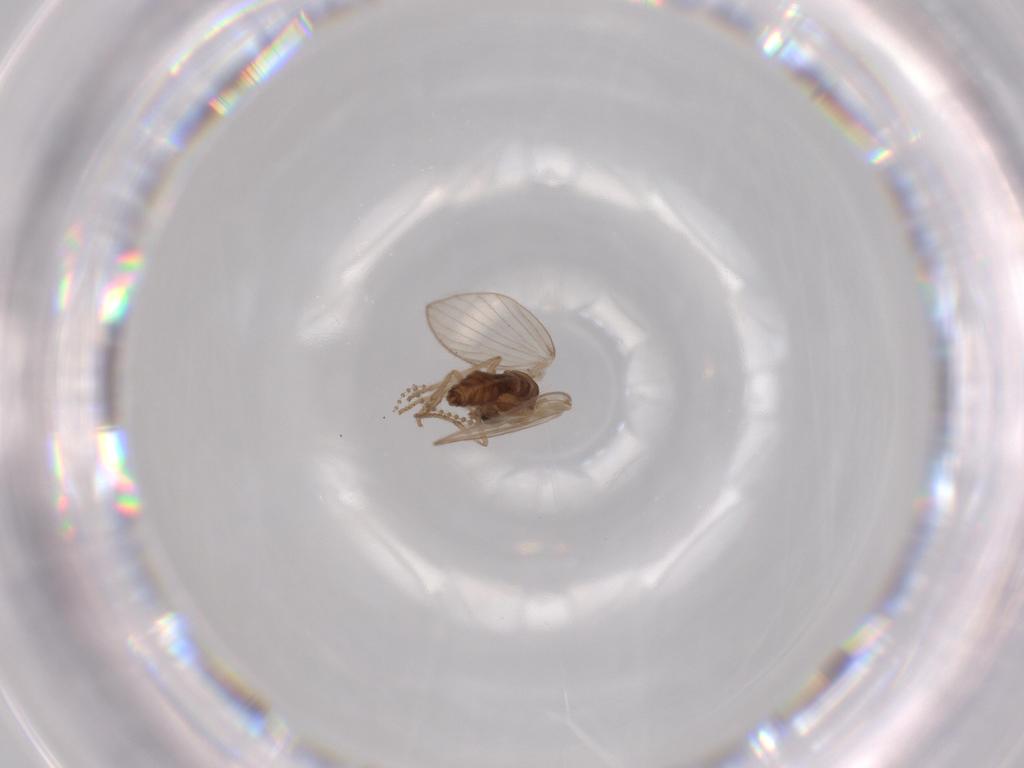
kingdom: Animalia
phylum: Arthropoda
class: Insecta
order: Diptera
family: Psychodidae
